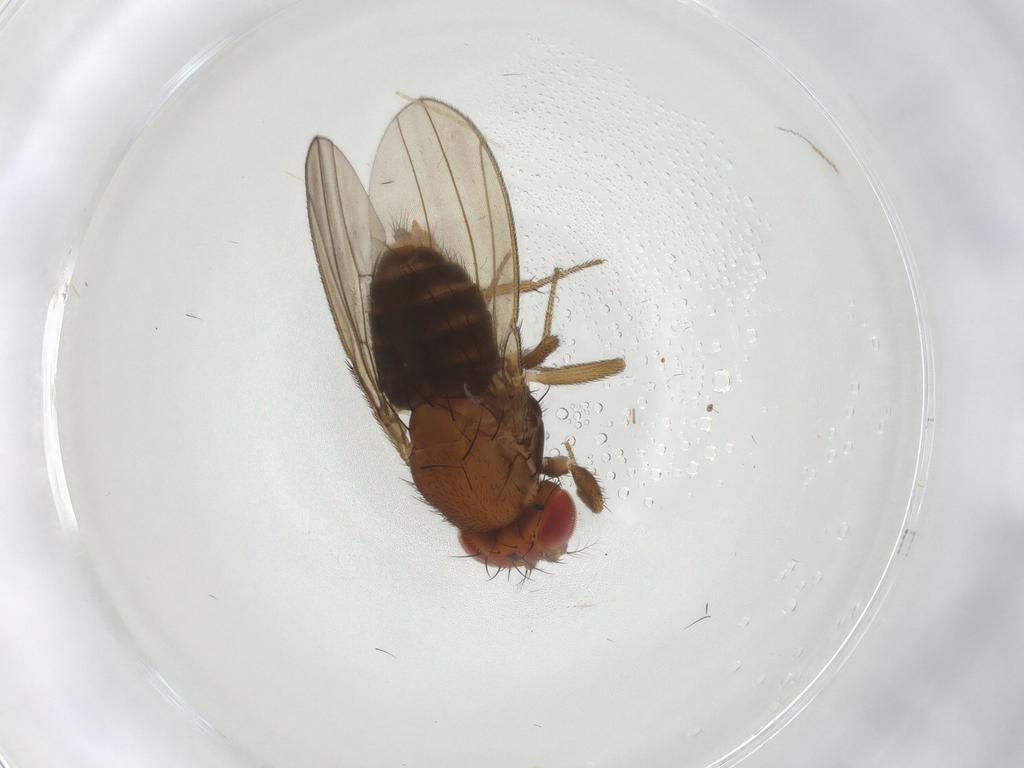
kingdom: Animalia
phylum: Arthropoda
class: Insecta
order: Diptera
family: Drosophilidae
